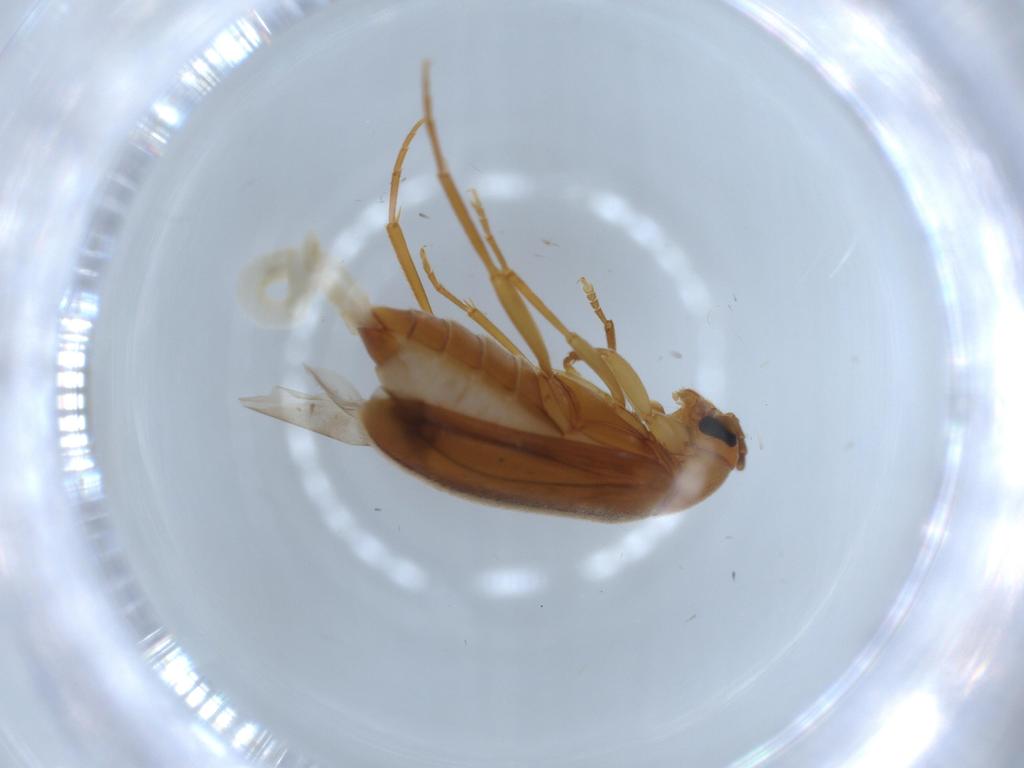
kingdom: Animalia
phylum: Arthropoda
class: Insecta
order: Coleoptera
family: Scraptiidae
